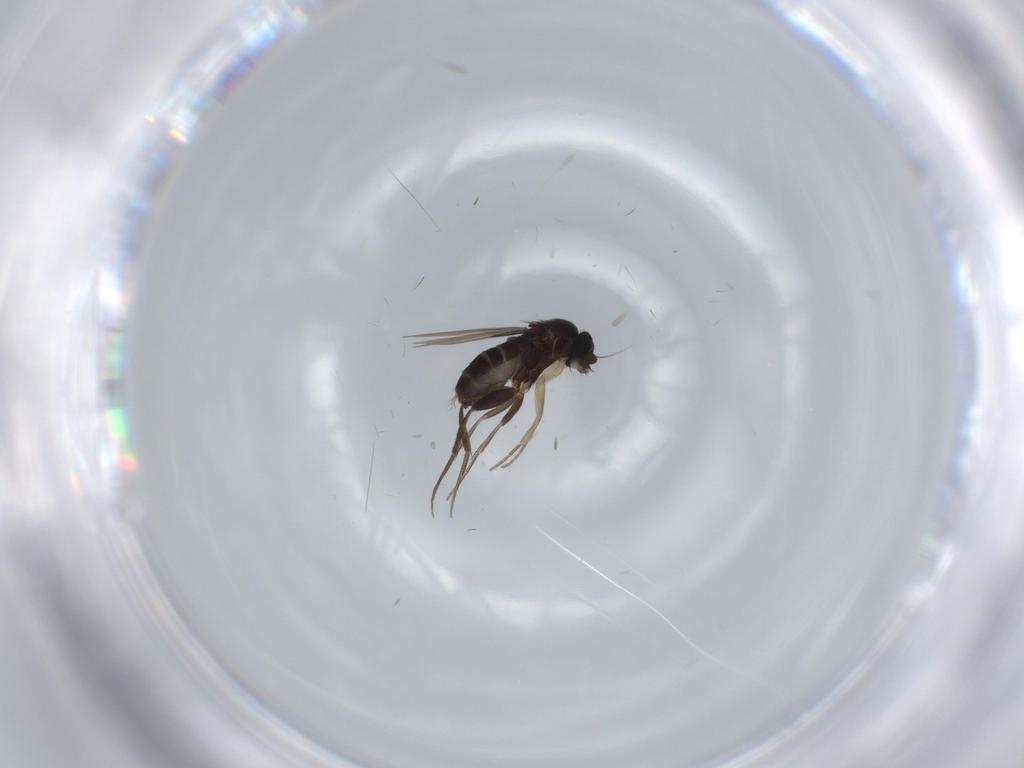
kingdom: Animalia
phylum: Arthropoda
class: Insecta
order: Diptera
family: Phoridae
